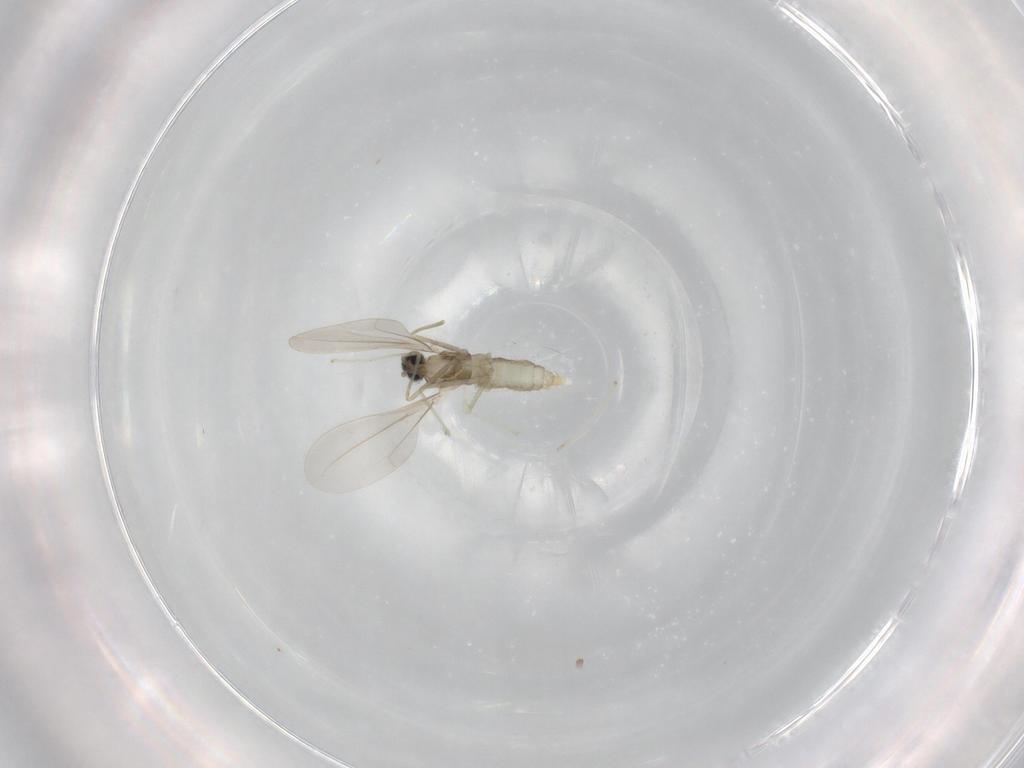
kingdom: Animalia
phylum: Arthropoda
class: Insecta
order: Diptera
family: Cecidomyiidae
